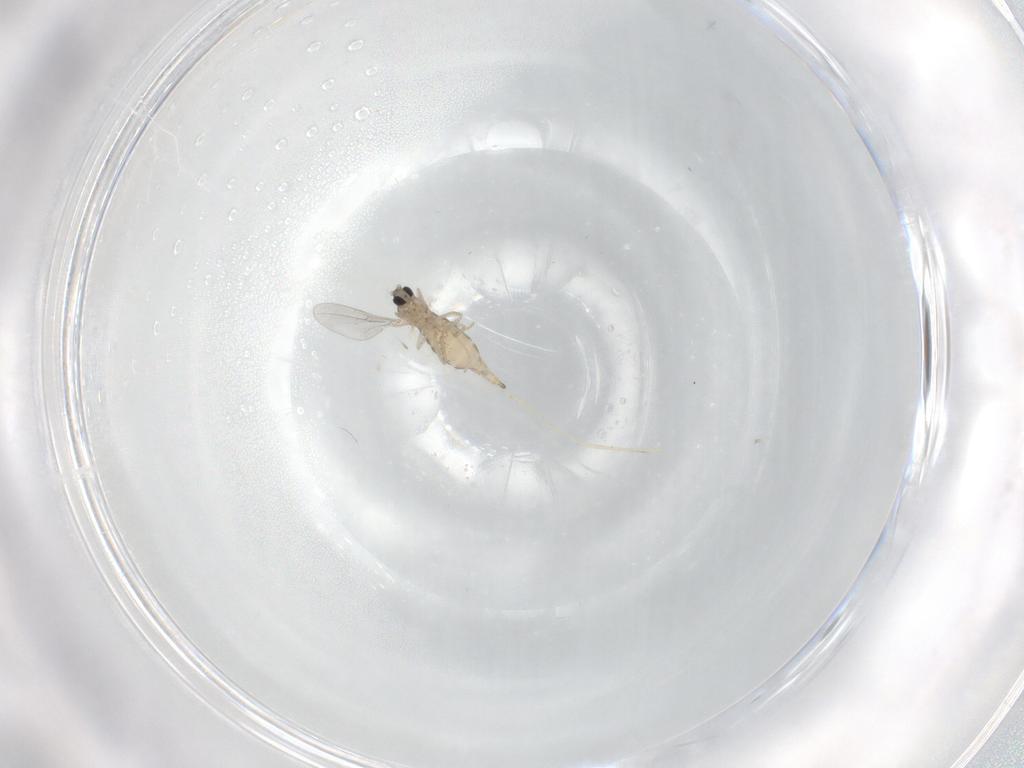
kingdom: Animalia
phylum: Arthropoda
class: Insecta
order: Diptera
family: Cecidomyiidae
